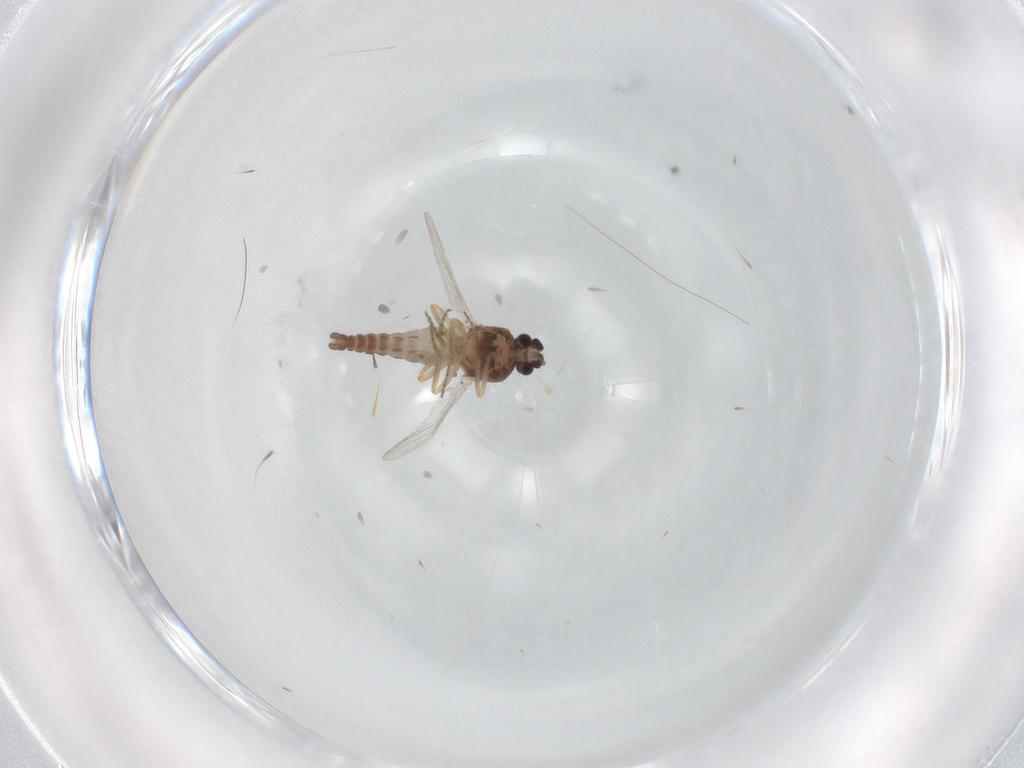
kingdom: Animalia
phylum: Arthropoda
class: Insecta
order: Diptera
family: Ceratopogonidae
